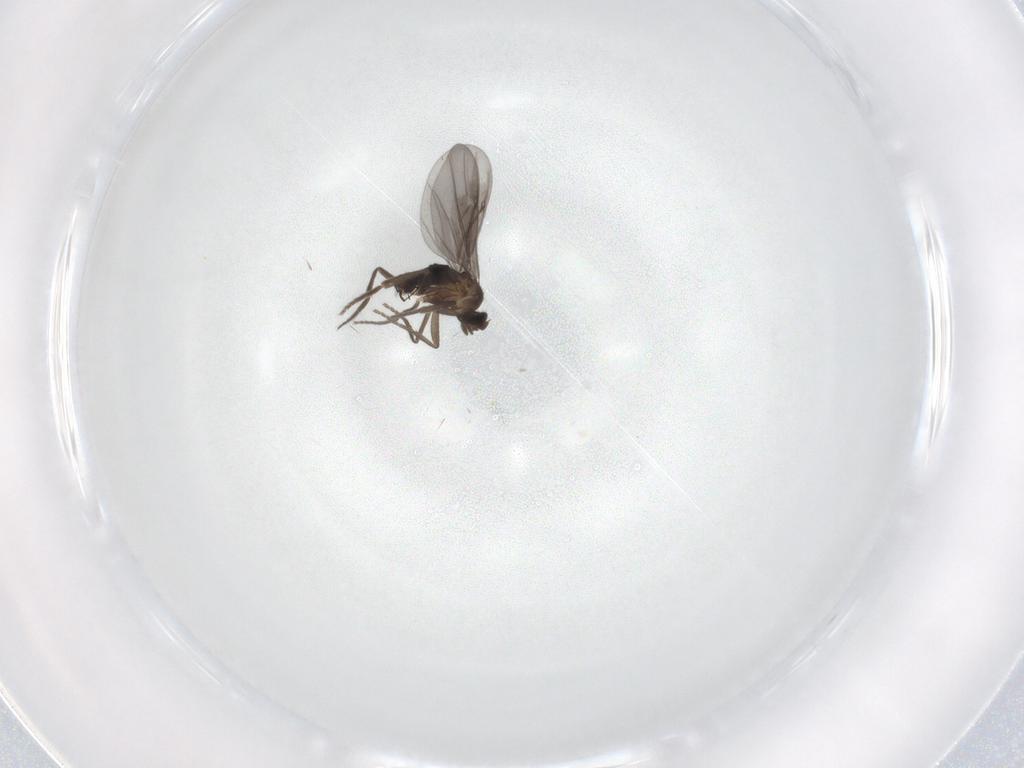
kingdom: Animalia
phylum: Arthropoda
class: Insecta
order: Diptera
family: Phoridae
